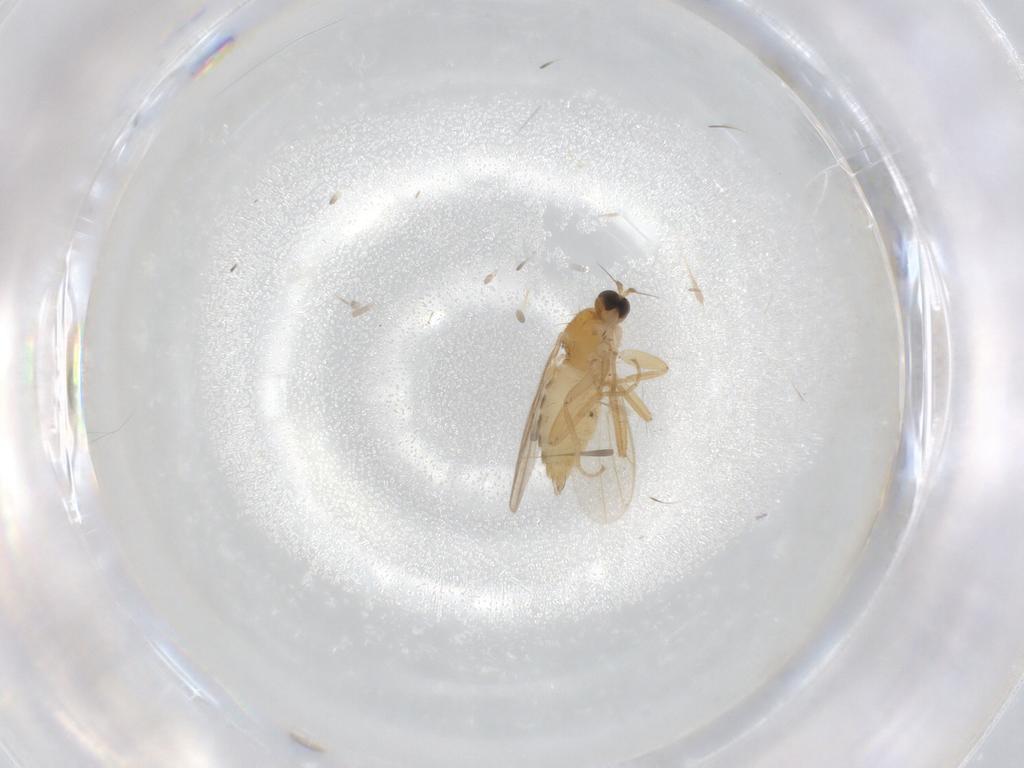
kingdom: Animalia
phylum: Arthropoda
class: Insecta
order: Diptera
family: Hybotidae
